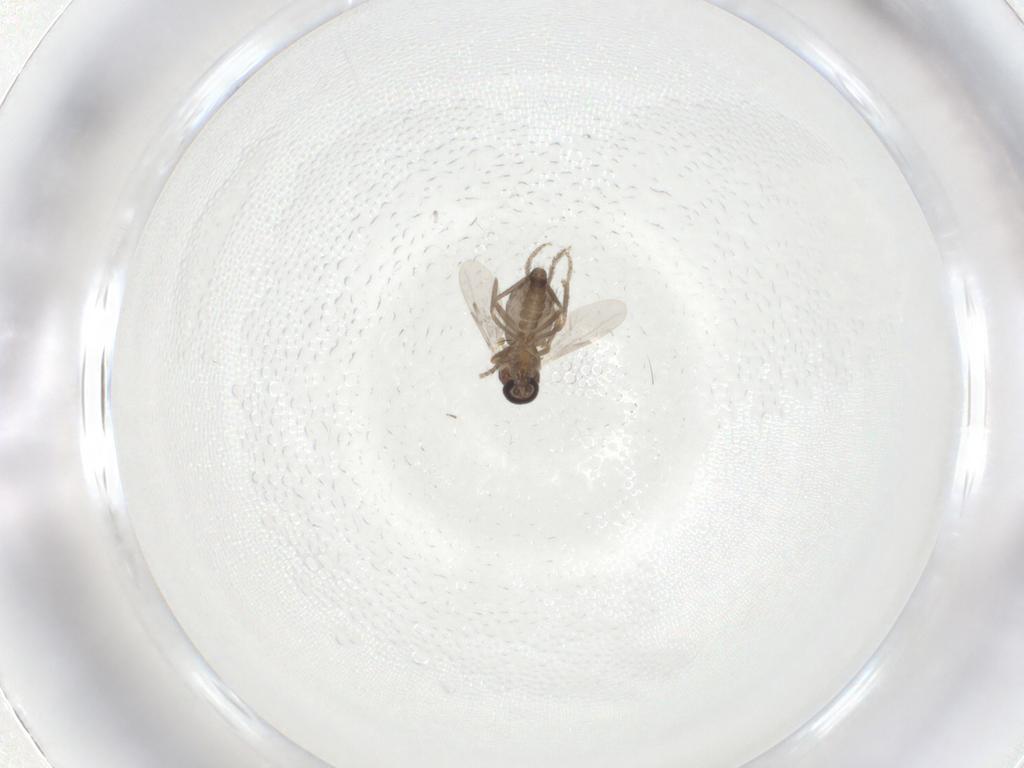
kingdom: Animalia
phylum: Arthropoda
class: Insecta
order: Diptera
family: Ceratopogonidae
